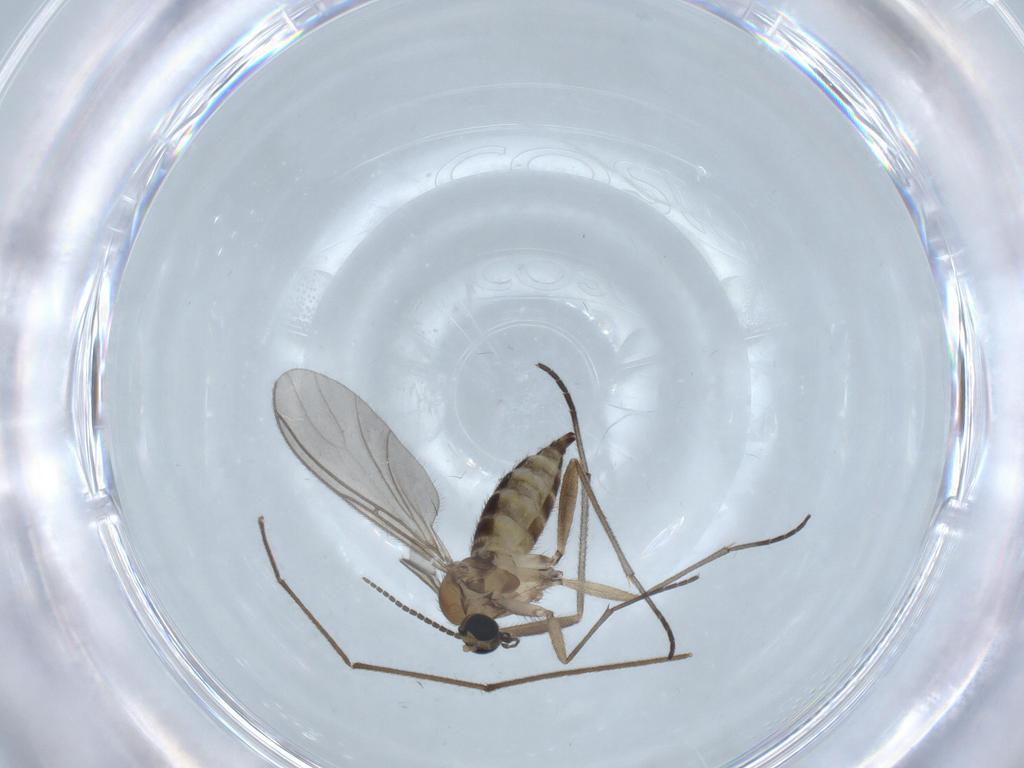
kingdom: Animalia
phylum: Arthropoda
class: Insecta
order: Diptera
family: Sciaridae
